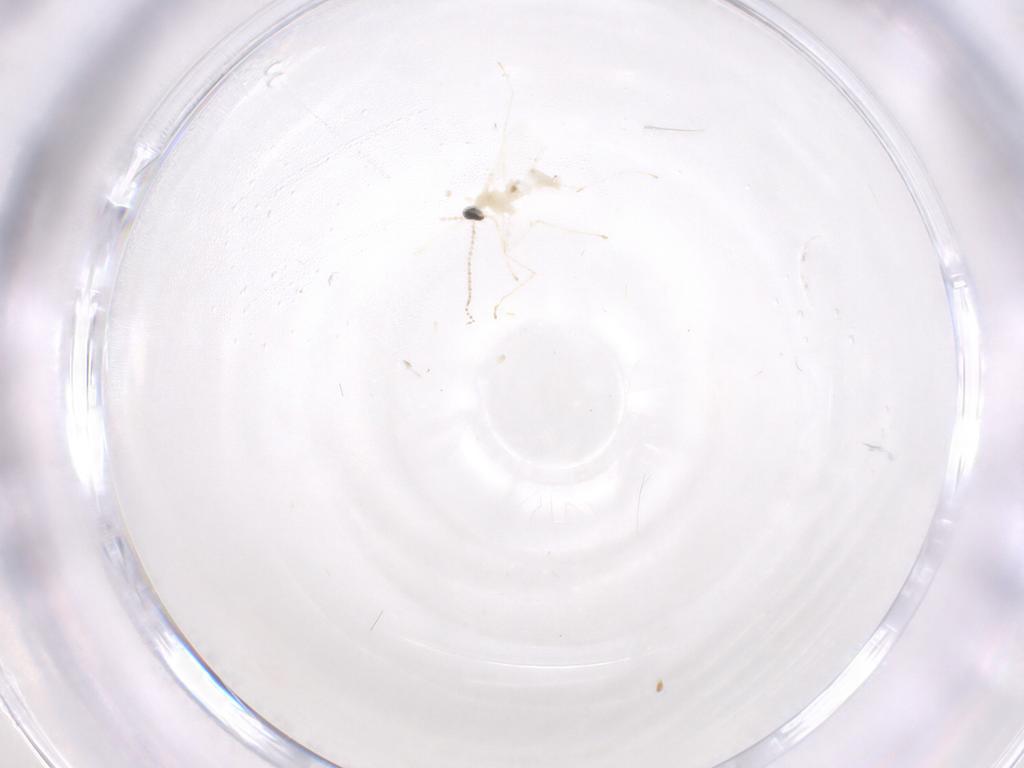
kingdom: Animalia
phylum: Arthropoda
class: Insecta
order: Diptera
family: Cecidomyiidae
